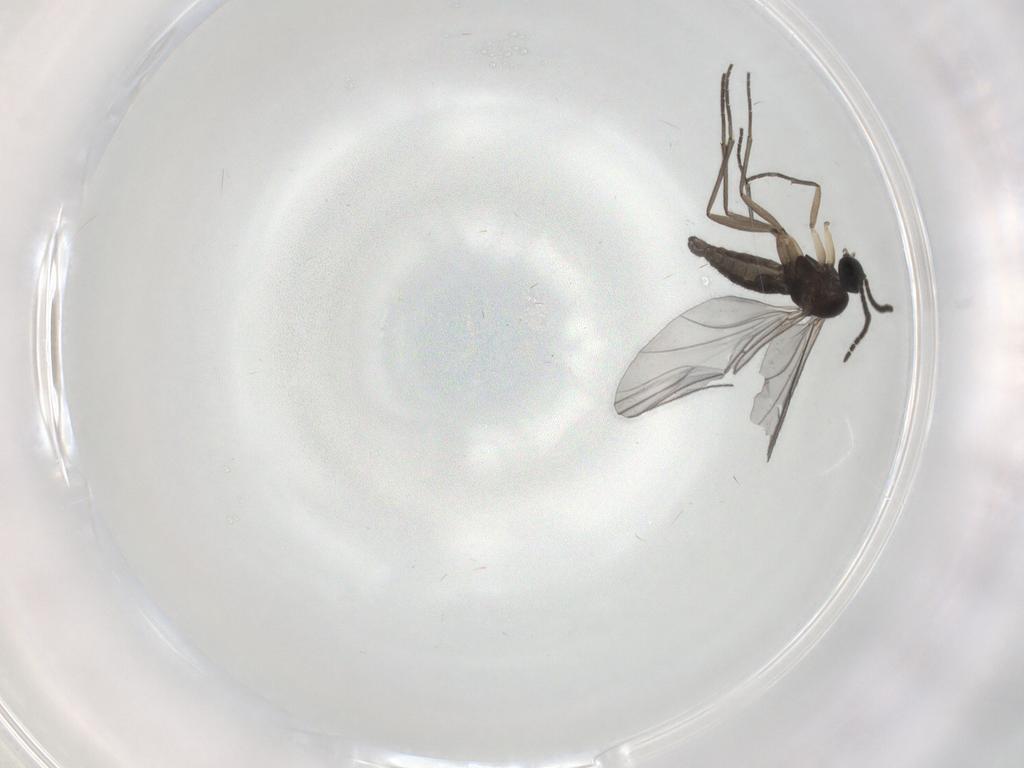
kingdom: Animalia
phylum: Arthropoda
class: Insecta
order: Diptera
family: Sciaridae
